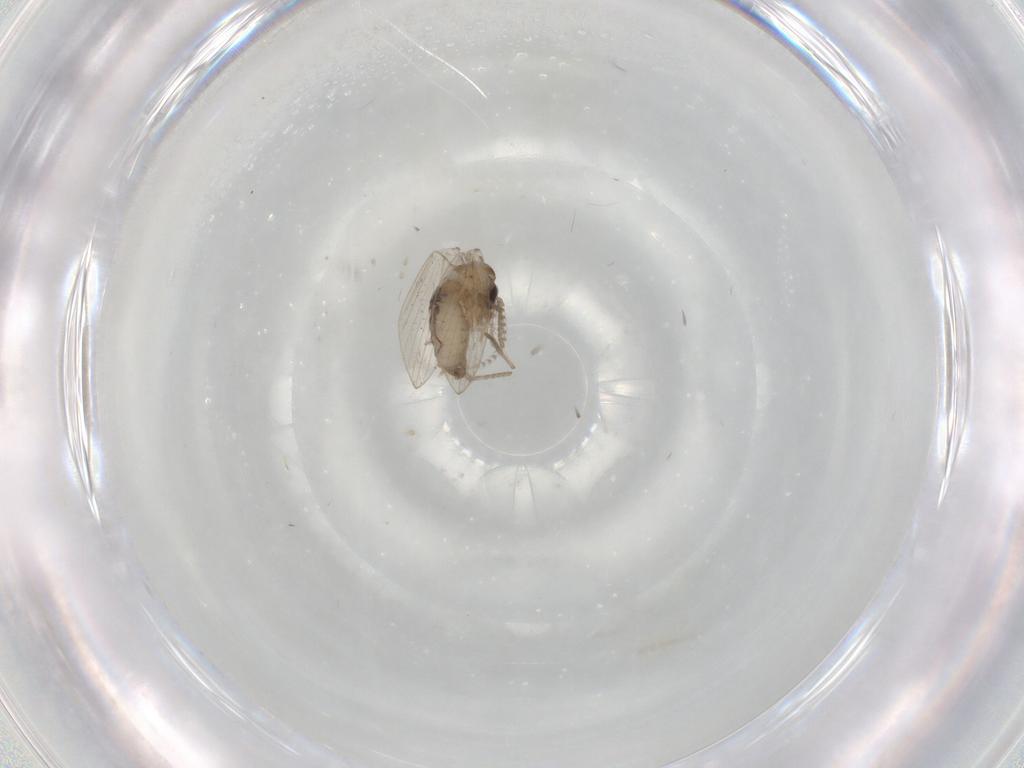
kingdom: Animalia
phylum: Arthropoda
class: Insecta
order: Diptera
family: Psychodidae
